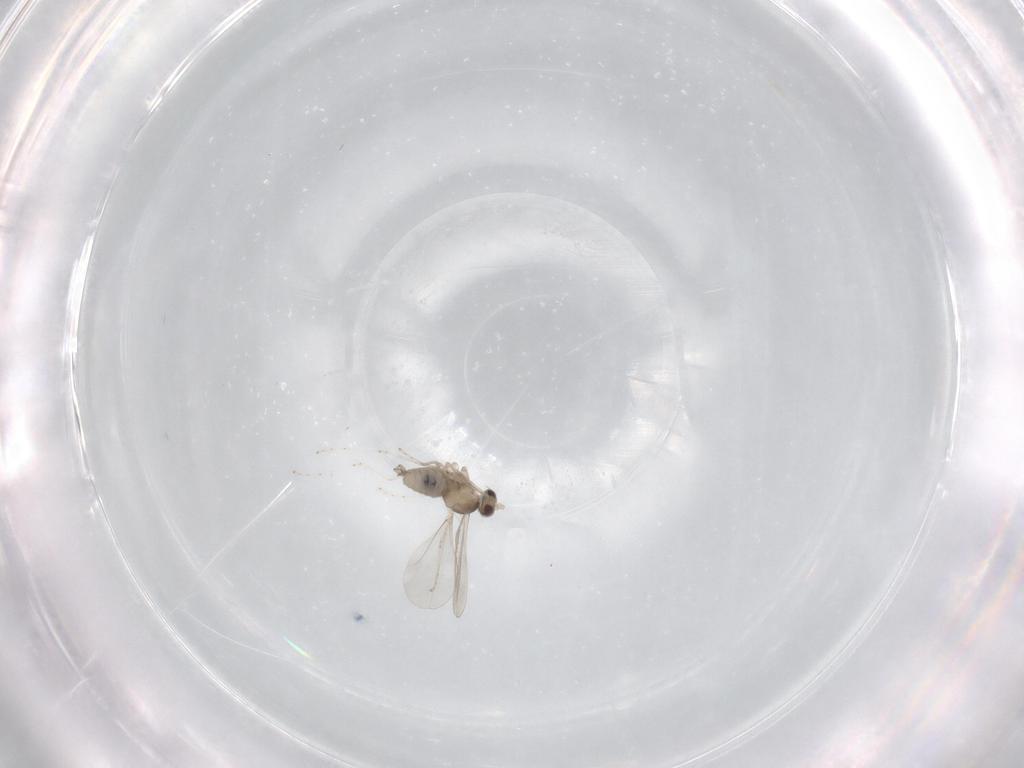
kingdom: Animalia
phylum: Arthropoda
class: Insecta
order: Diptera
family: Cecidomyiidae
